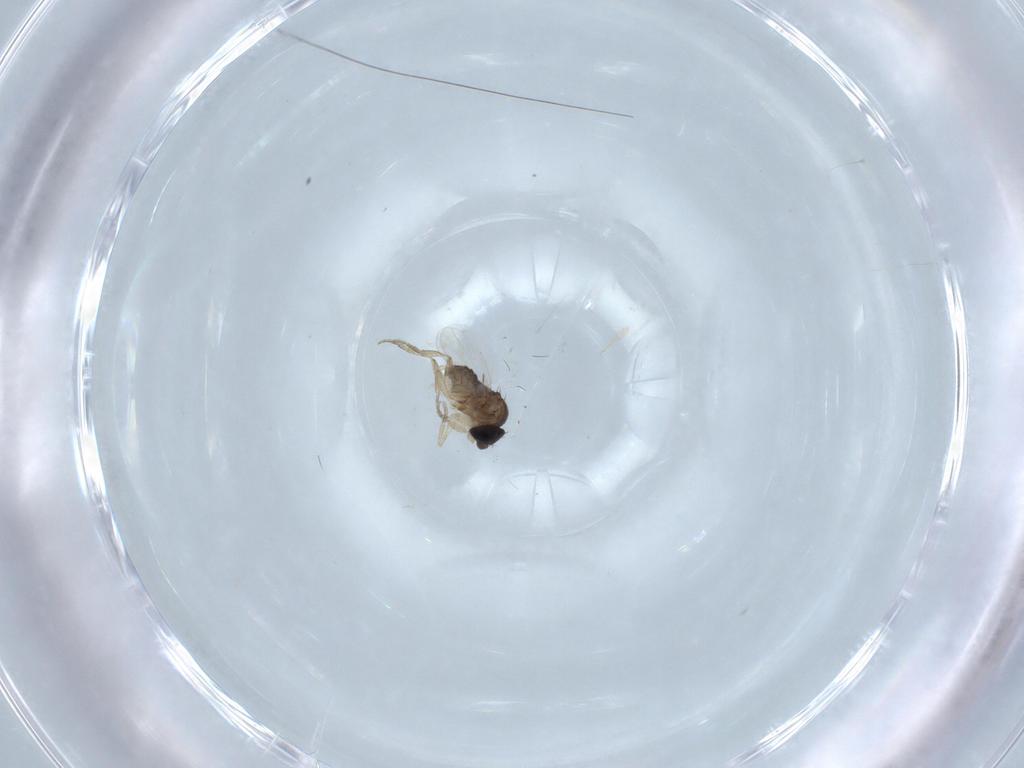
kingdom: Animalia
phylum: Arthropoda
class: Insecta
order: Diptera
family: Phoridae
